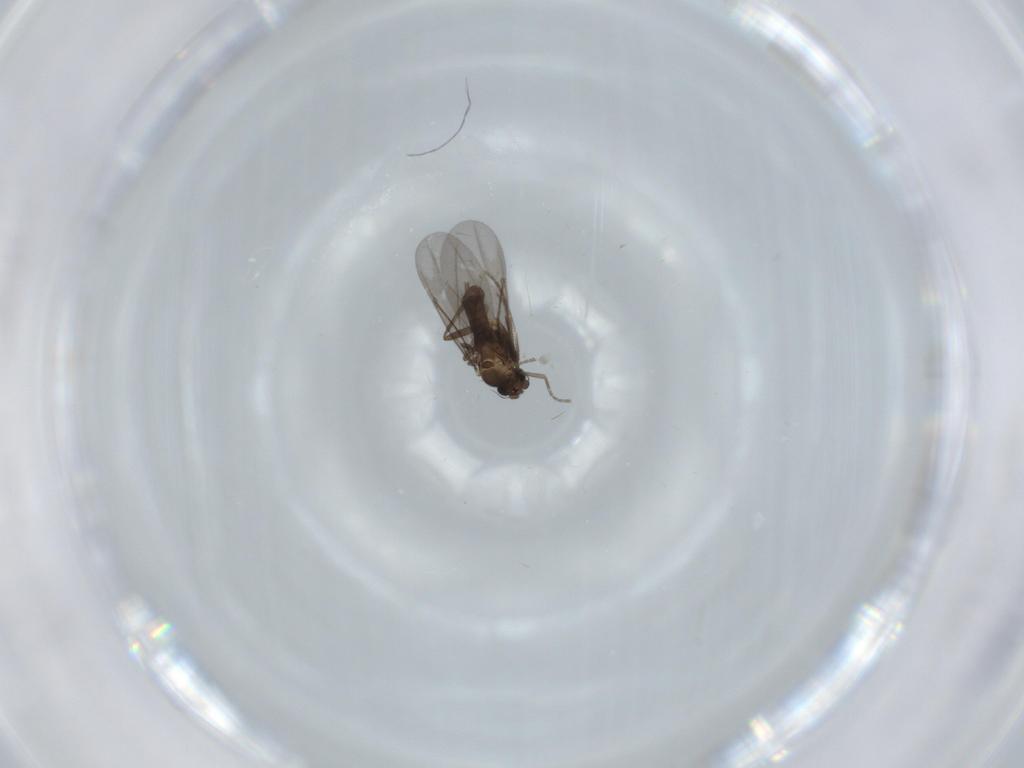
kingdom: Animalia
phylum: Arthropoda
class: Insecta
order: Diptera
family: Phoridae
